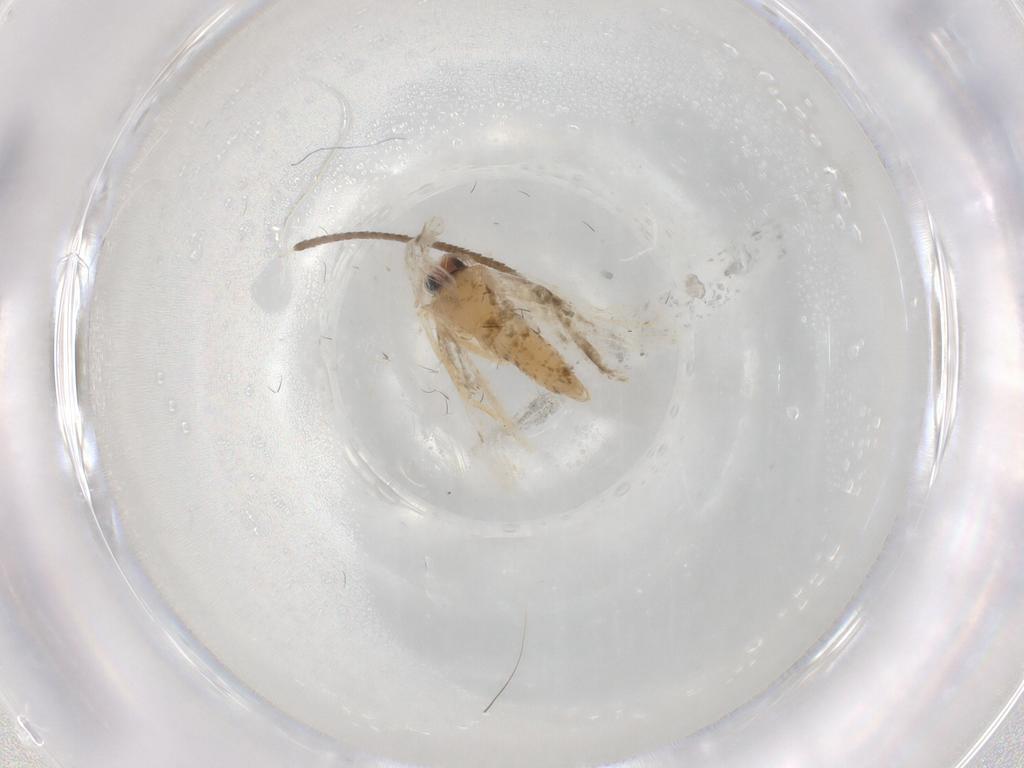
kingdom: Animalia
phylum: Arthropoda
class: Insecta
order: Lepidoptera
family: Psychidae
